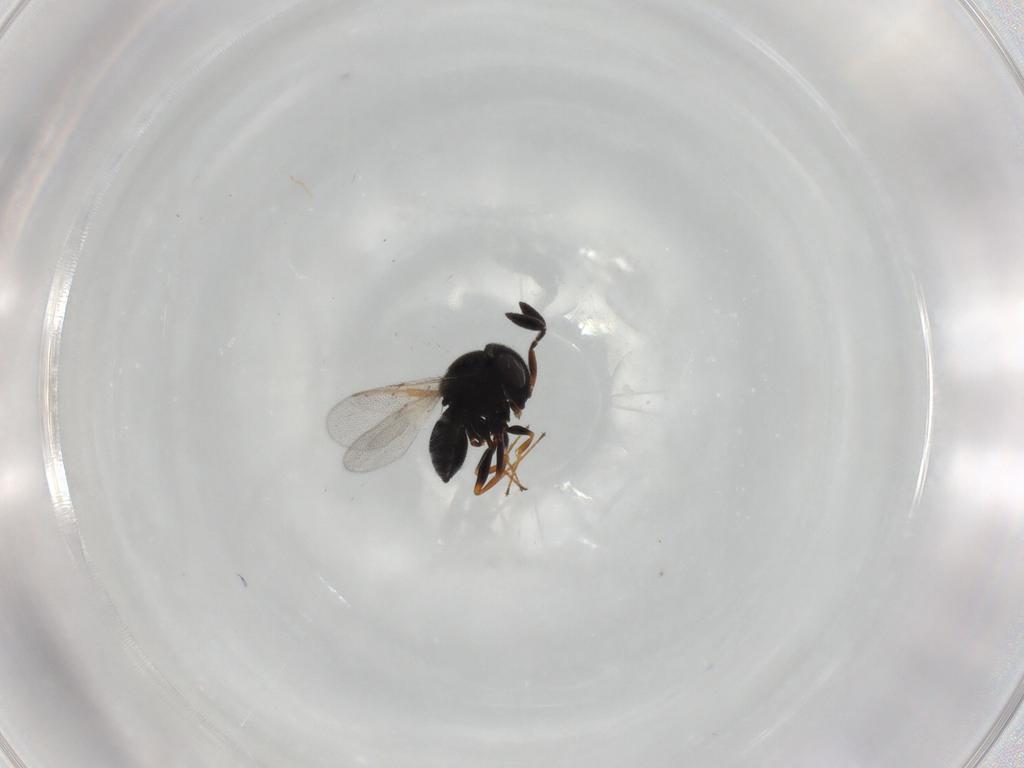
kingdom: Animalia
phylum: Arthropoda
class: Insecta
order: Hymenoptera
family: Scelionidae
